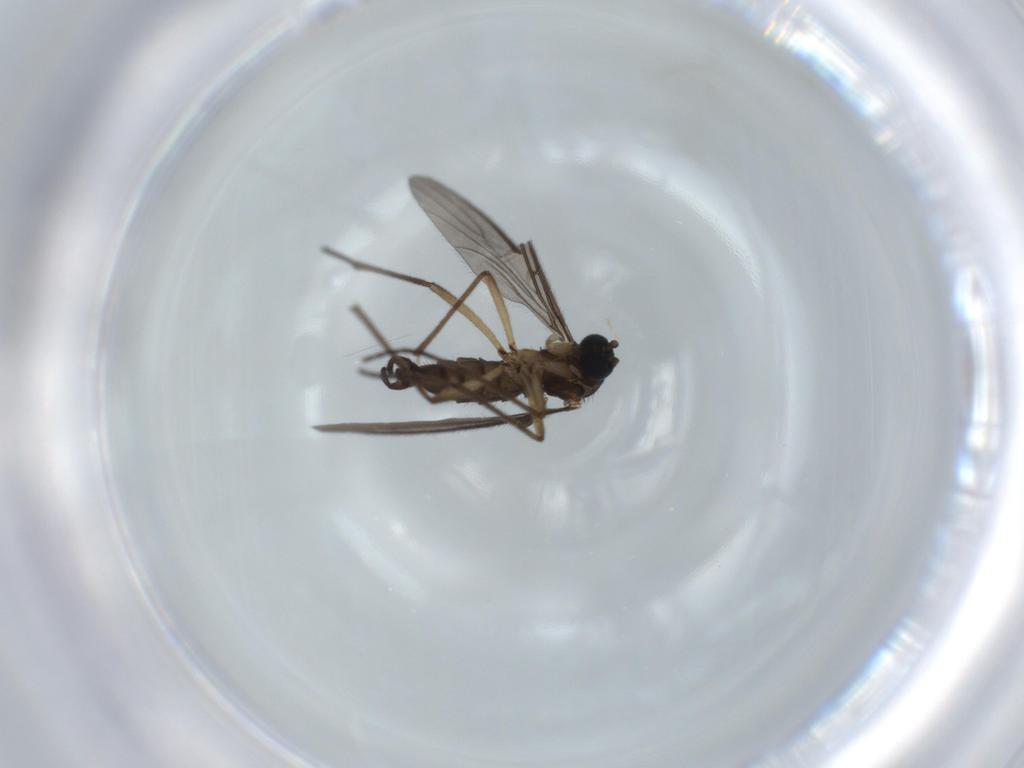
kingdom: Animalia
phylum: Arthropoda
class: Insecta
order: Diptera
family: Sciaridae
